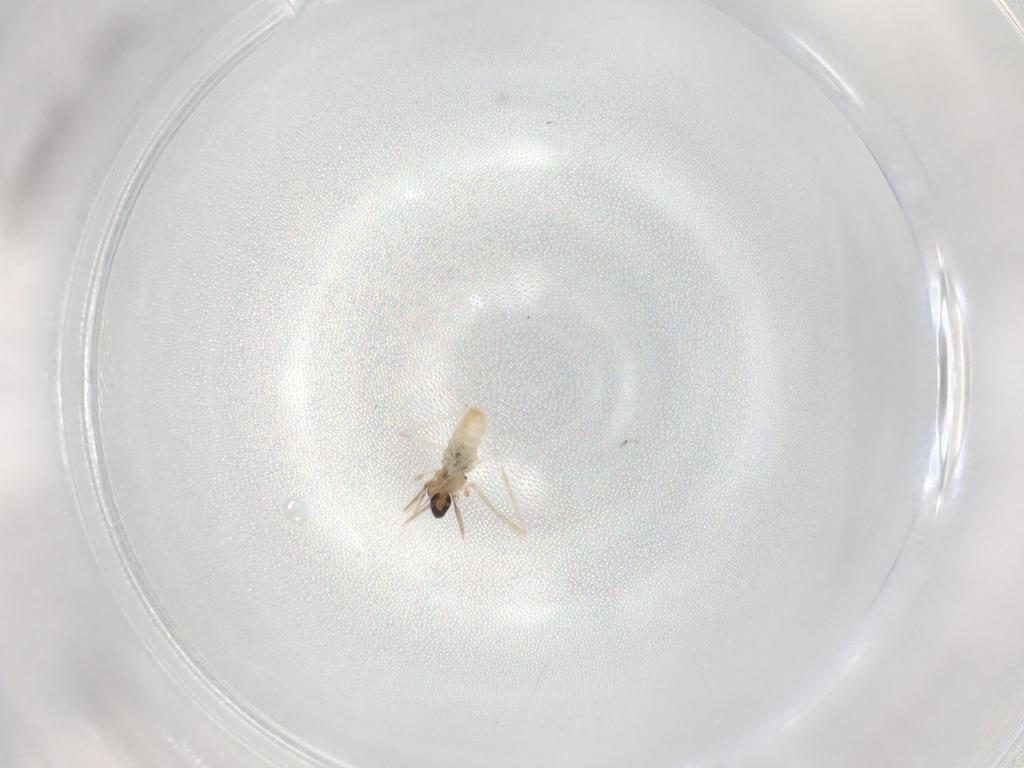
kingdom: Animalia
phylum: Arthropoda
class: Insecta
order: Diptera
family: Cecidomyiidae
